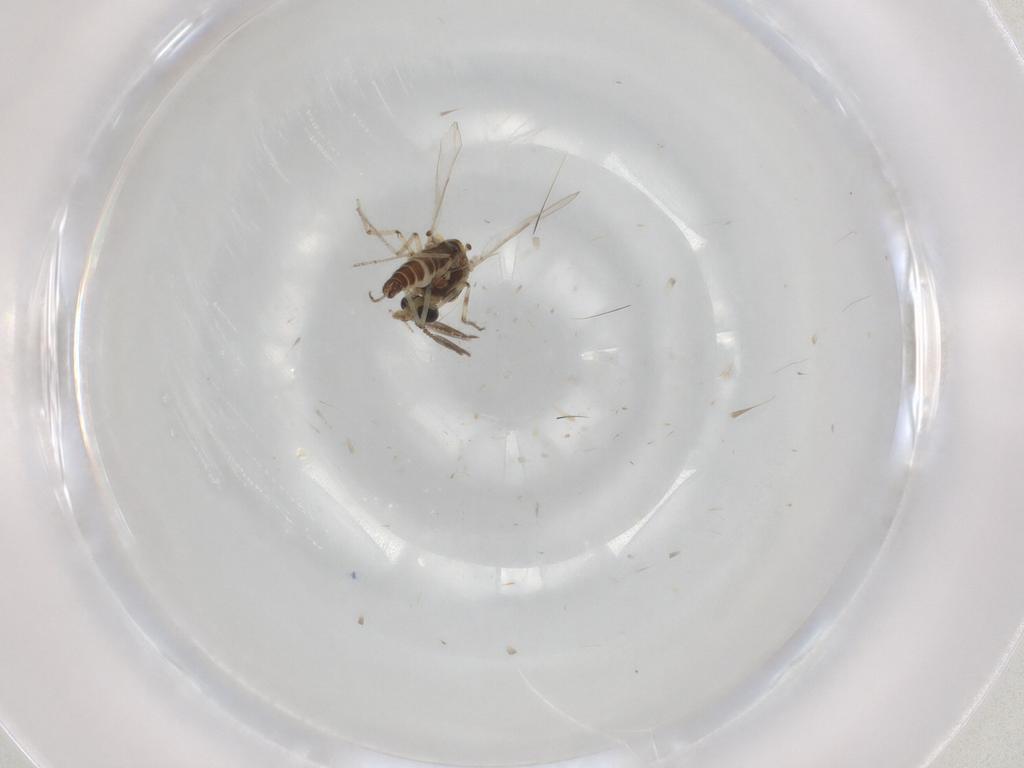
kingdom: Animalia
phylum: Arthropoda
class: Insecta
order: Diptera
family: Ceratopogonidae
